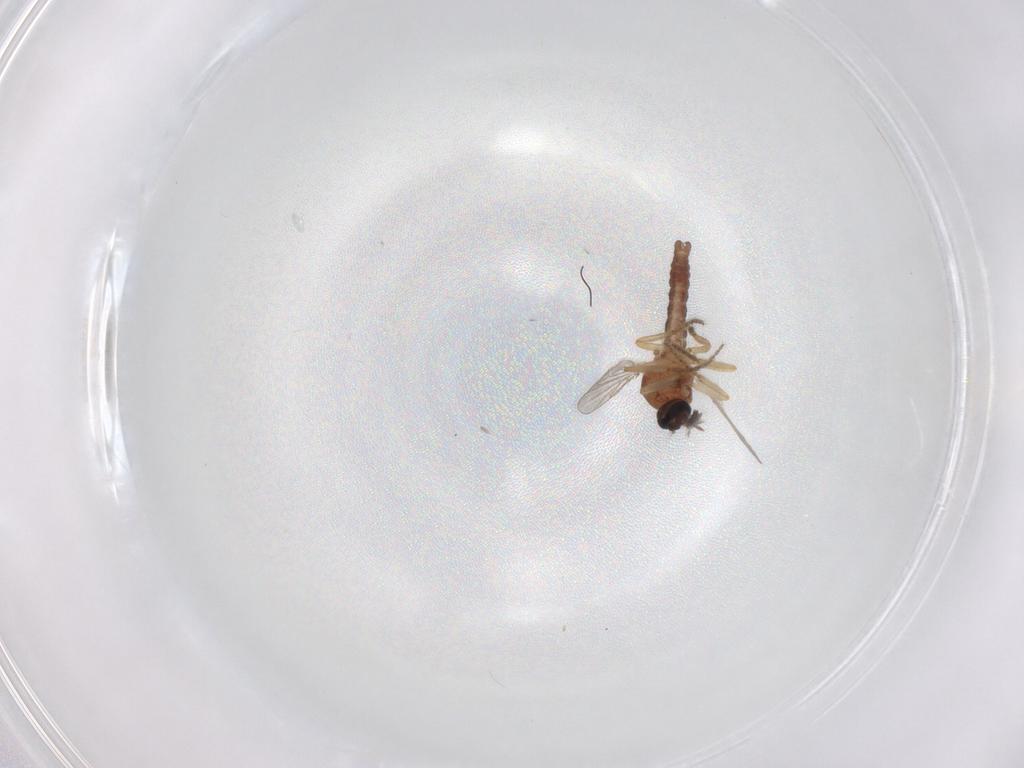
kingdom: Animalia
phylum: Arthropoda
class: Insecta
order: Diptera
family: Ceratopogonidae
